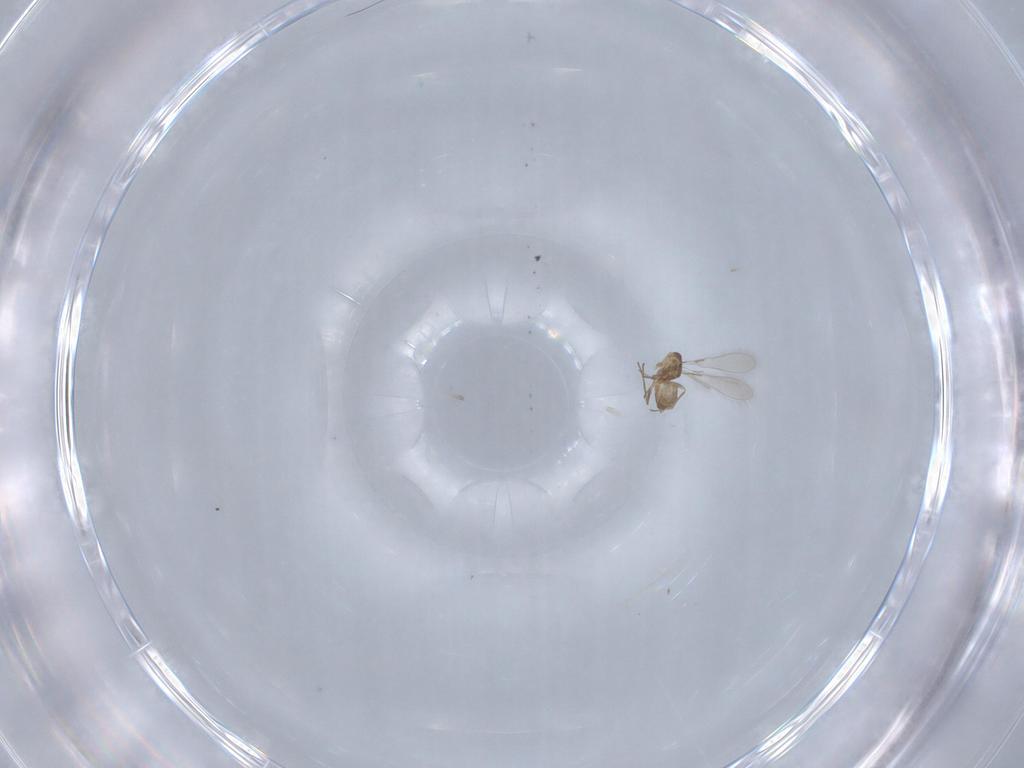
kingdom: Animalia
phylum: Arthropoda
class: Insecta
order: Hymenoptera
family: Mymaridae
